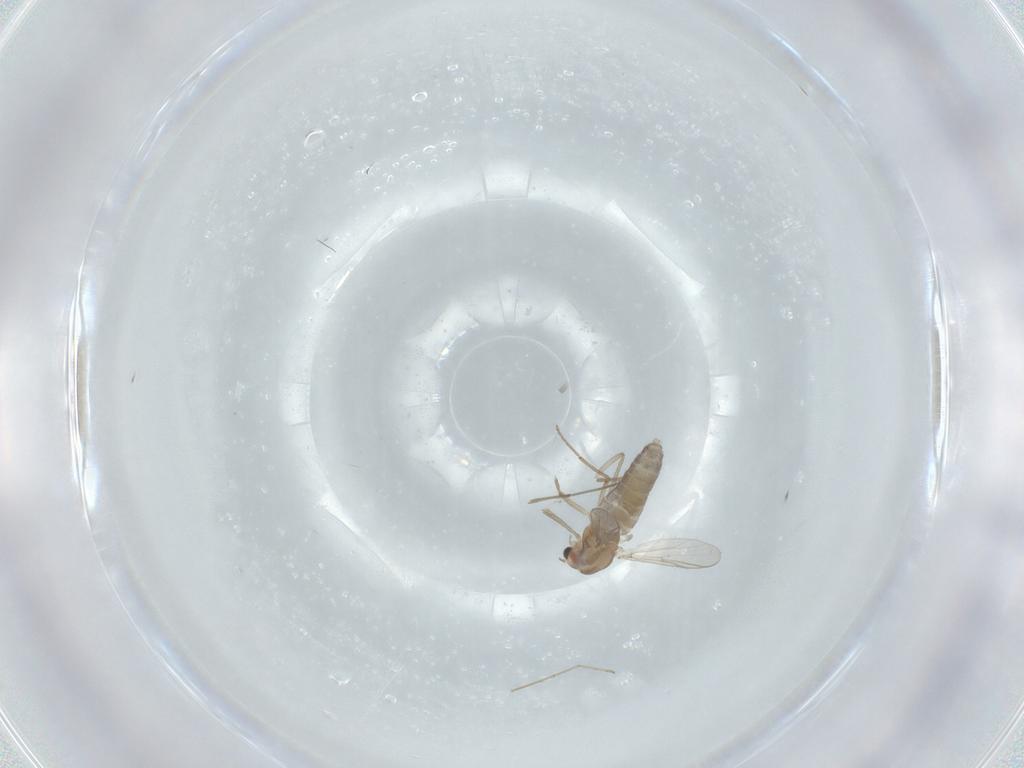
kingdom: Animalia
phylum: Arthropoda
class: Insecta
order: Diptera
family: Chironomidae
